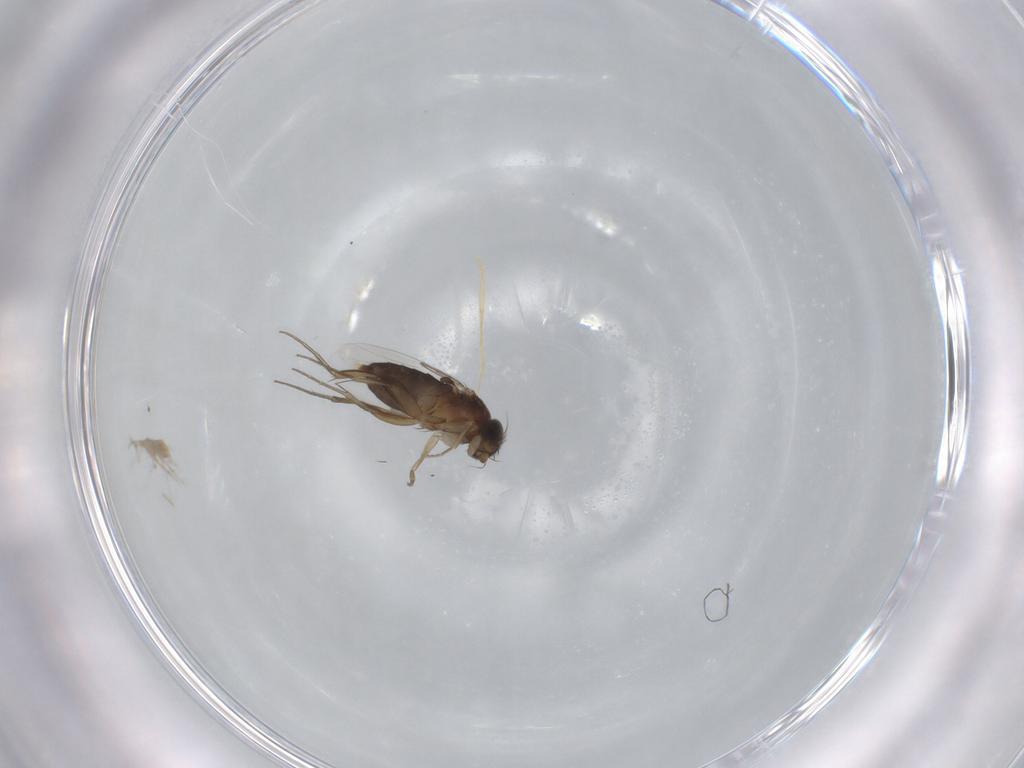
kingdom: Animalia
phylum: Arthropoda
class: Insecta
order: Diptera
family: Phoridae
